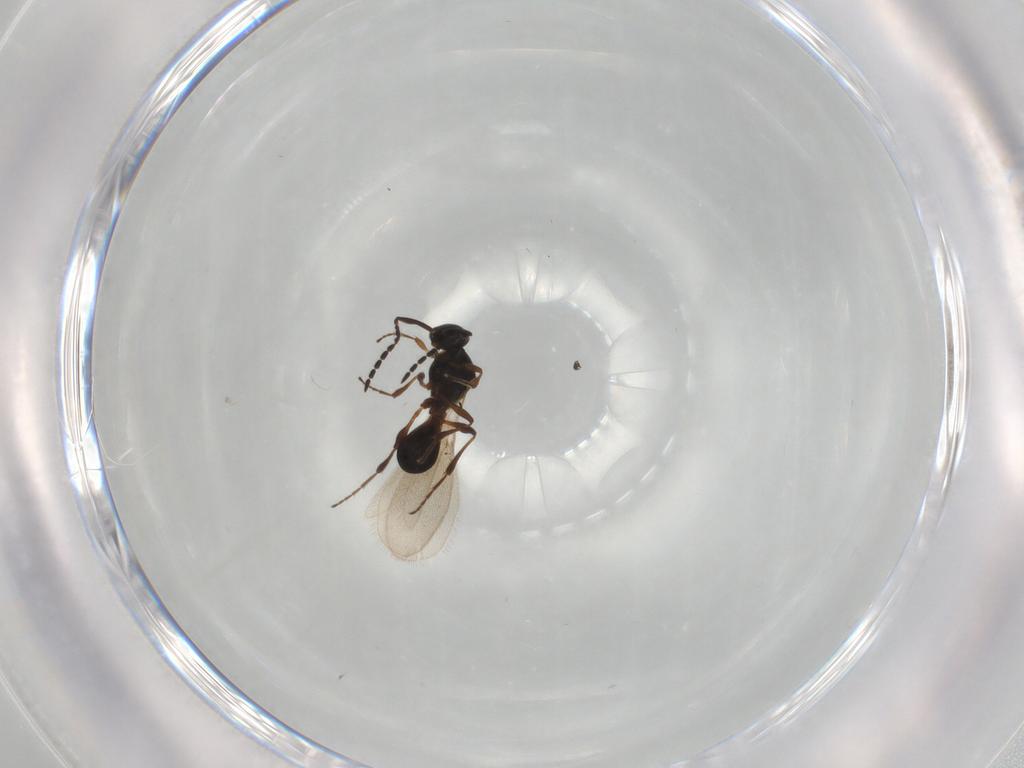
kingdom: Animalia
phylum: Arthropoda
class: Insecta
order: Hymenoptera
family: Platygastridae
